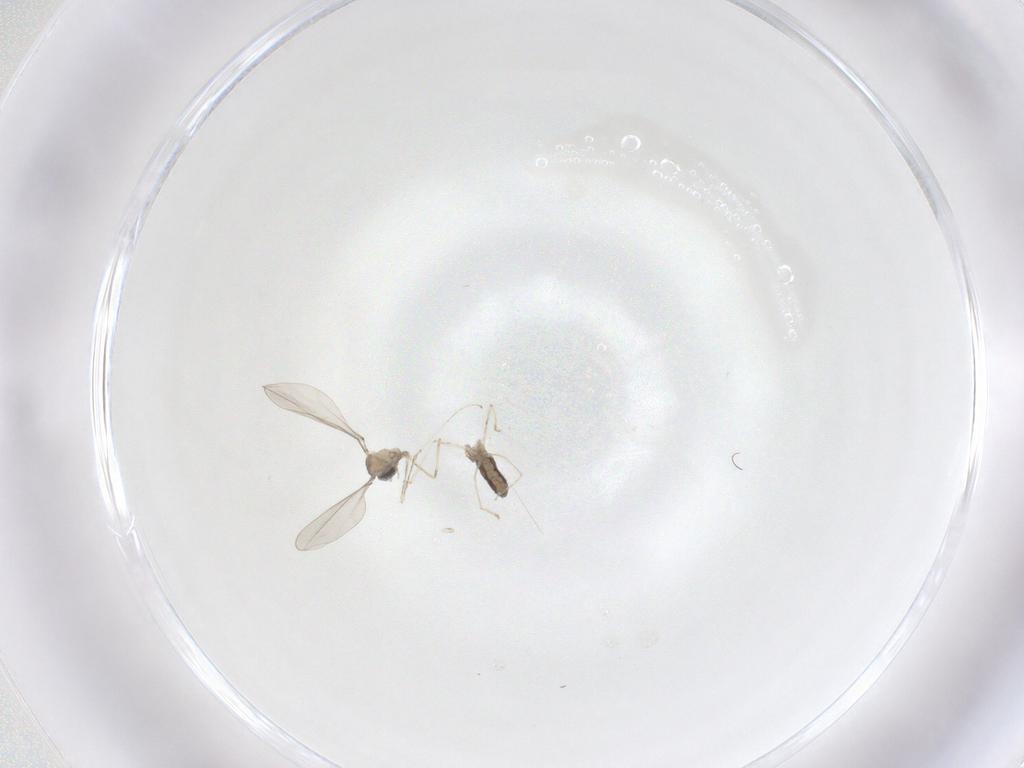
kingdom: Animalia
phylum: Arthropoda
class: Insecta
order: Diptera
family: Cecidomyiidae
